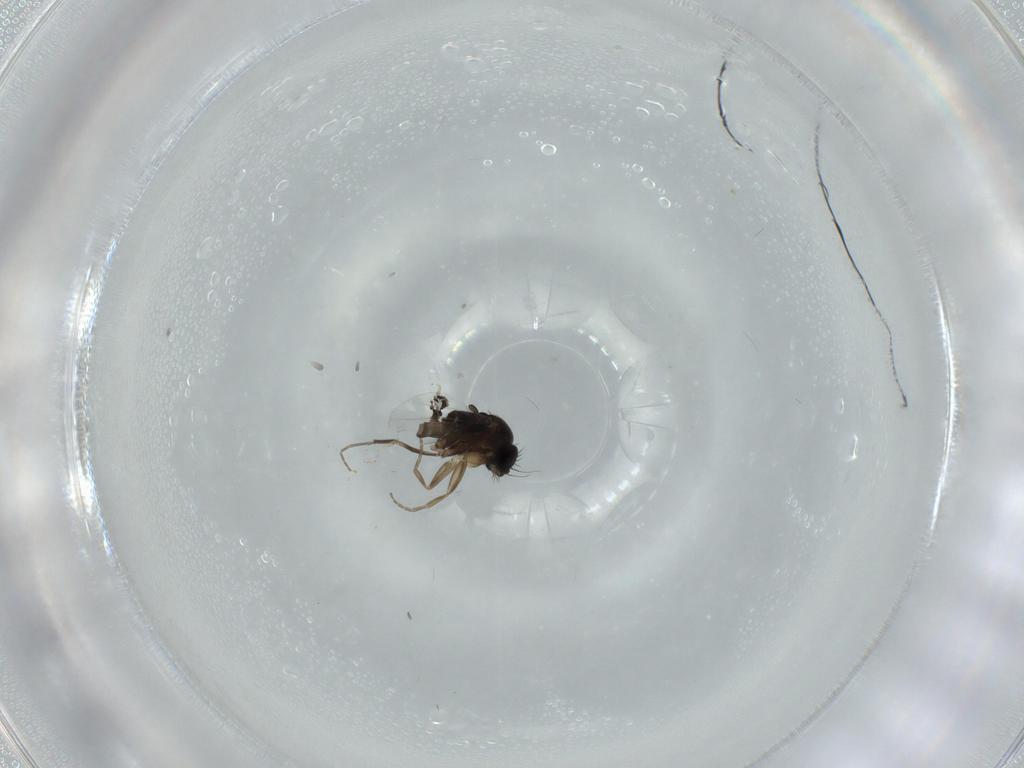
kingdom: Animalia
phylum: Arthropoda
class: Insecta
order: Diptera
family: Phoridae
